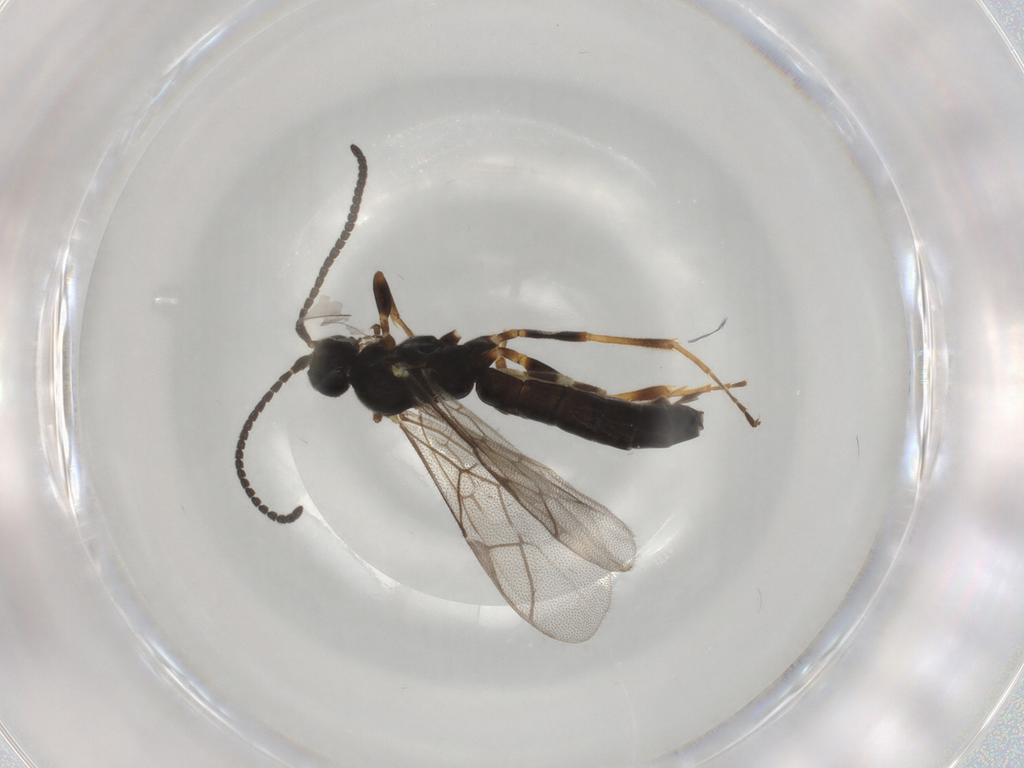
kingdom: Animalia
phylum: Arthropoda
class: Insecta
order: Hymenoptera
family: Ichneumonidae
